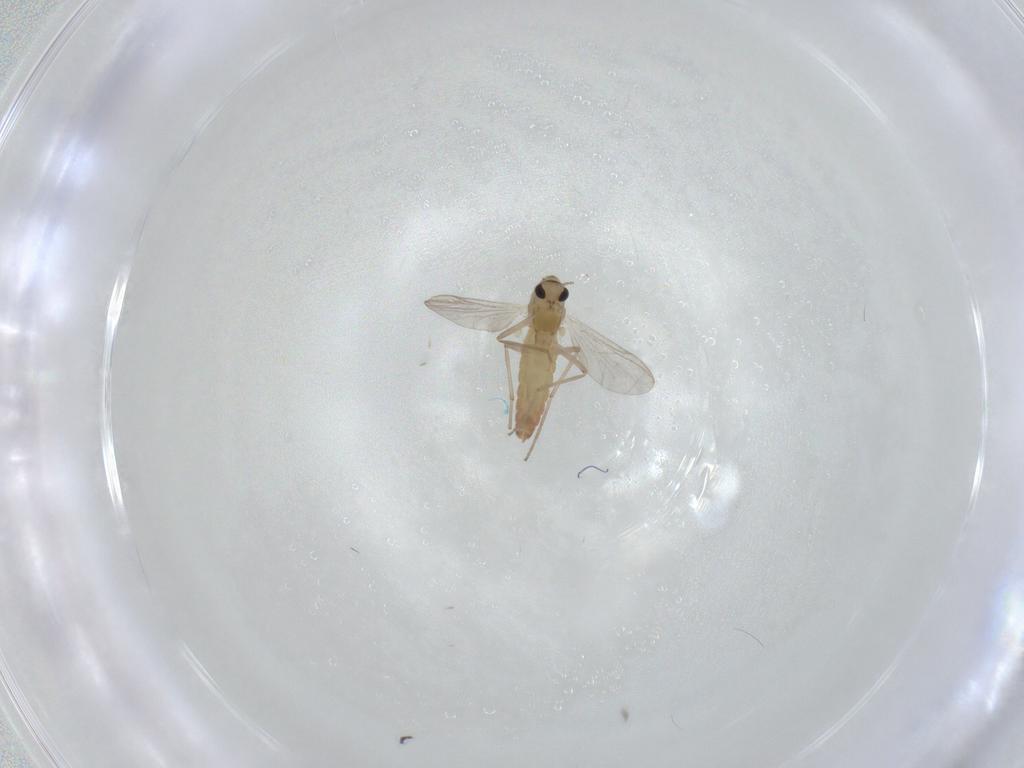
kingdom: Animalia
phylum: Arthropoda
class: Insecta
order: Diptera
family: Chironomidae
